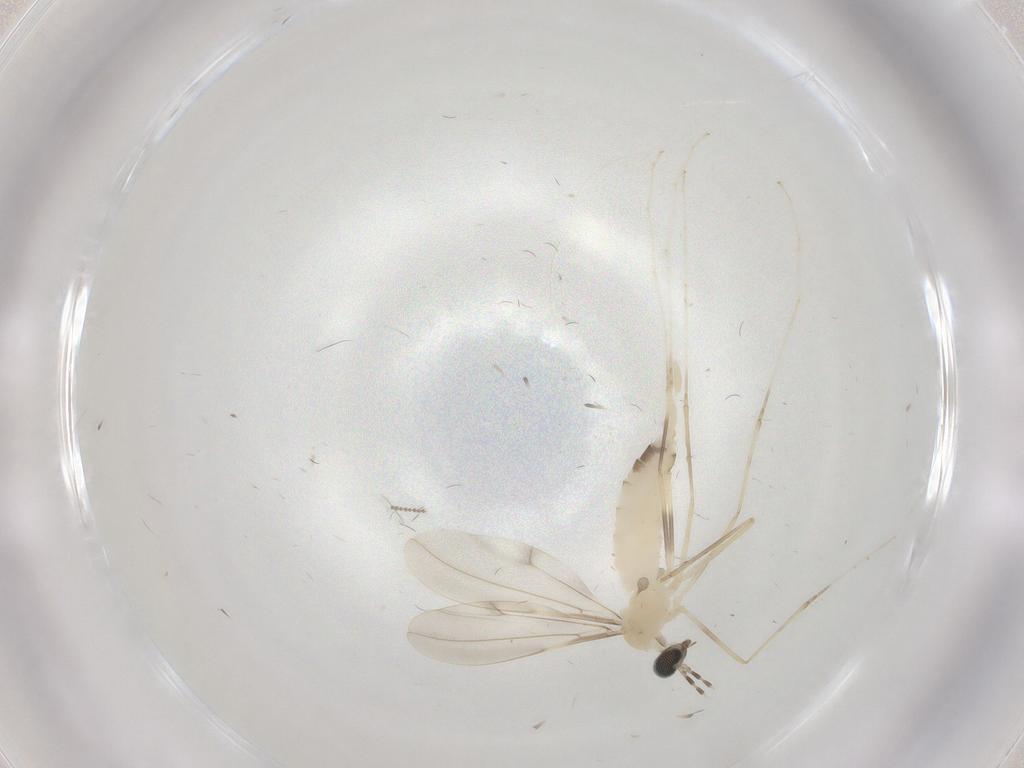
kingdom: Animalia
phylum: Arthropoda
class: Insecta
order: Diptera
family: Cecidomyiidae
